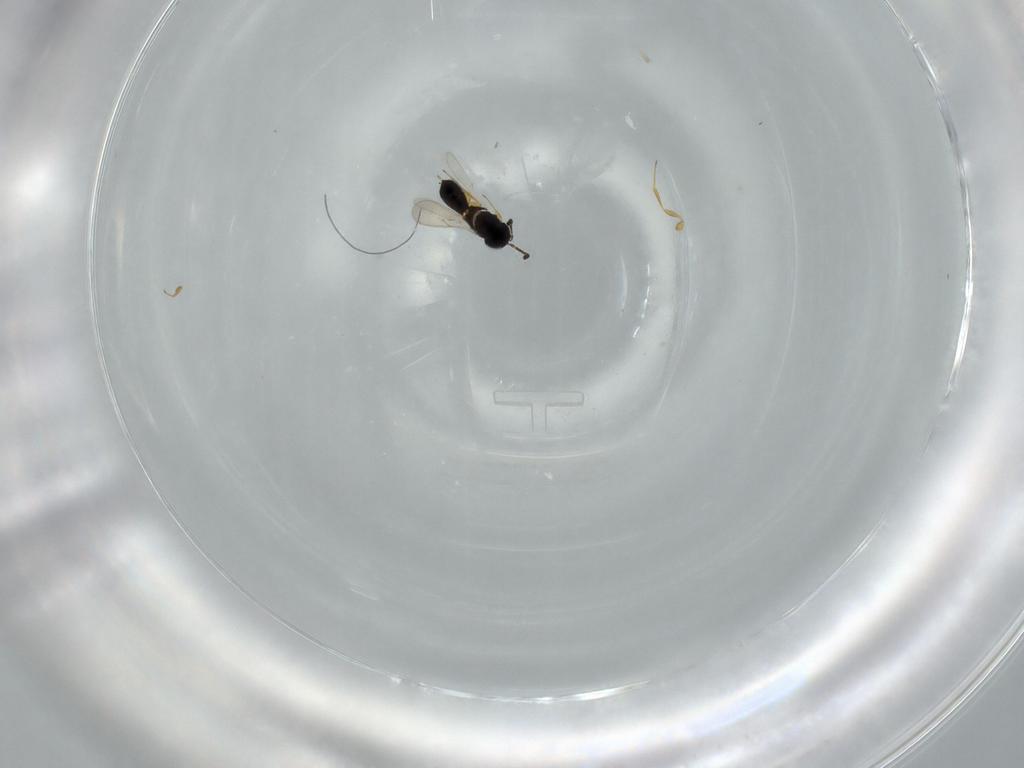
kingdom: Animalia
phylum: Arthropoda
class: Insecta
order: Hymenoptera
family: Scelionidae
